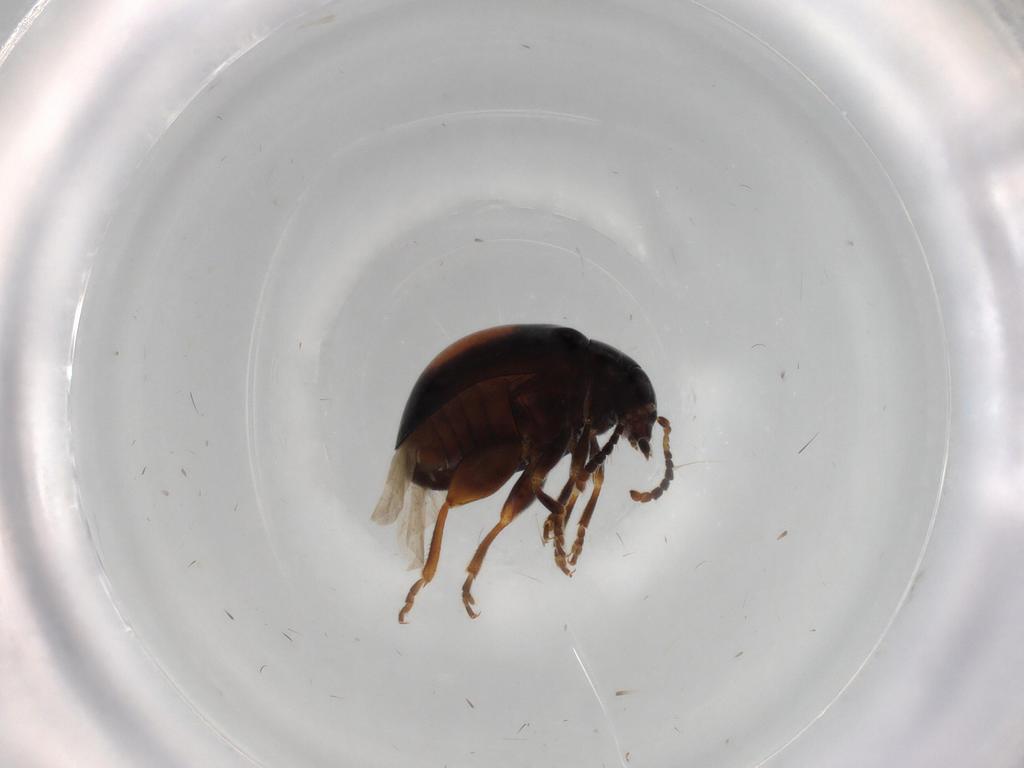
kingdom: Animalia
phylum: Arthropoda
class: Insecta
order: Coleoptera
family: Chrysomelidae
